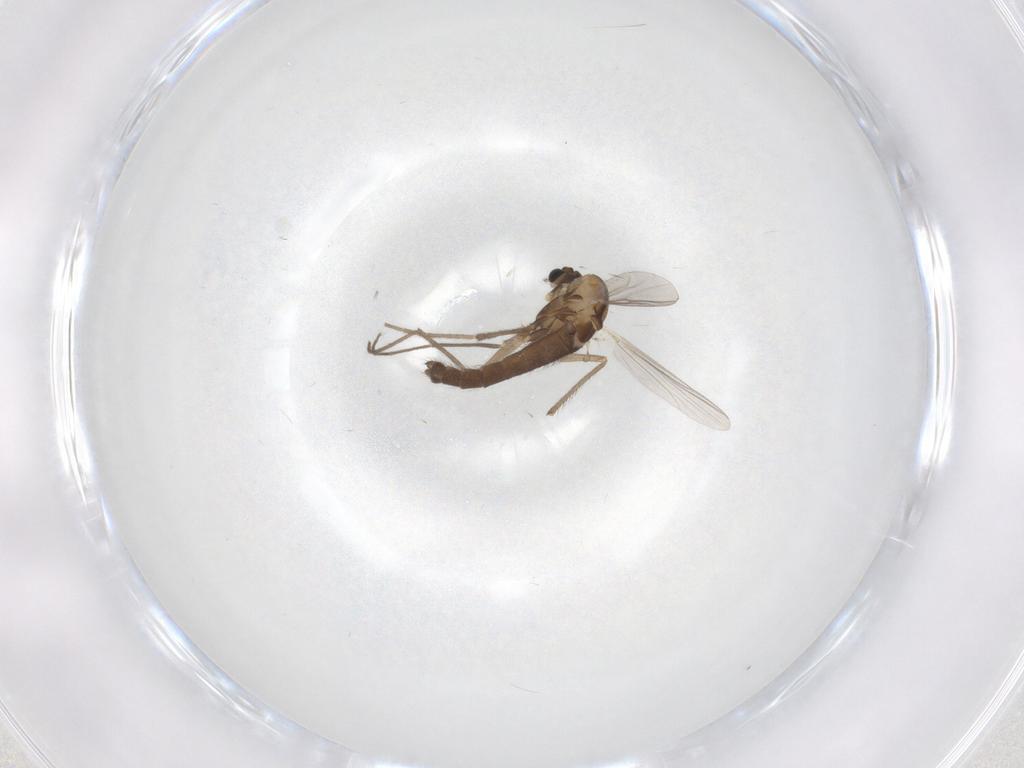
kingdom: Animalia
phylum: Arthropoda
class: Insecta
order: Diptera
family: Chironomidae
